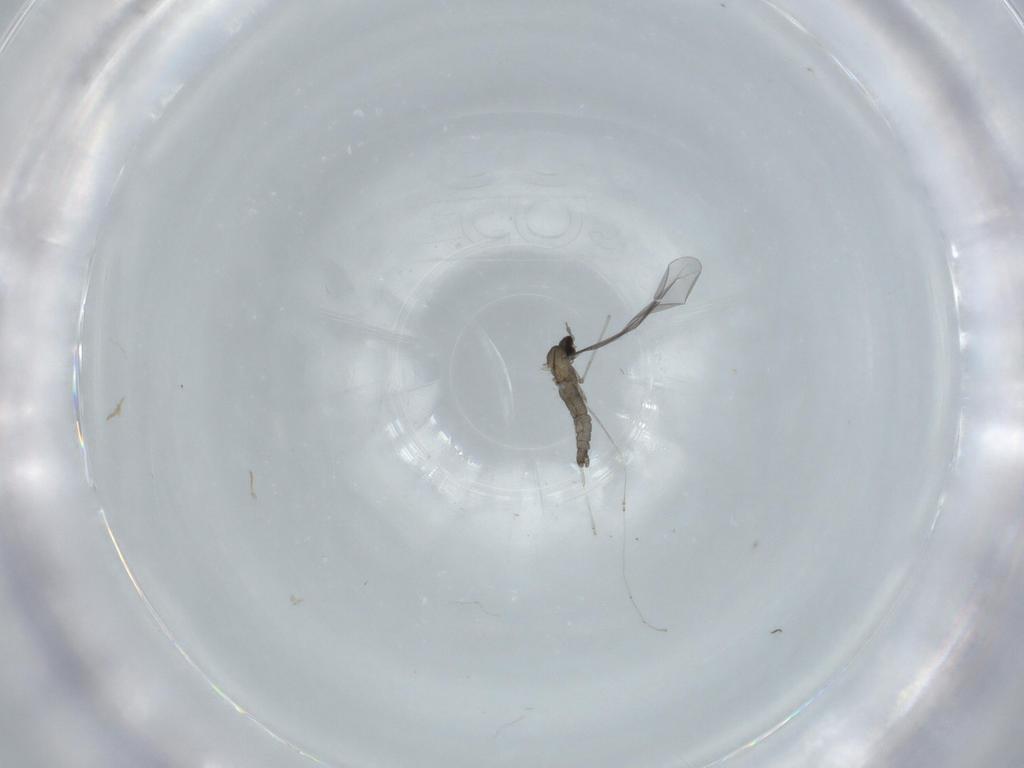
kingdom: Animalia
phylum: Arthropoda
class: Insecta
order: Diptera
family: Cecidomyiidae
